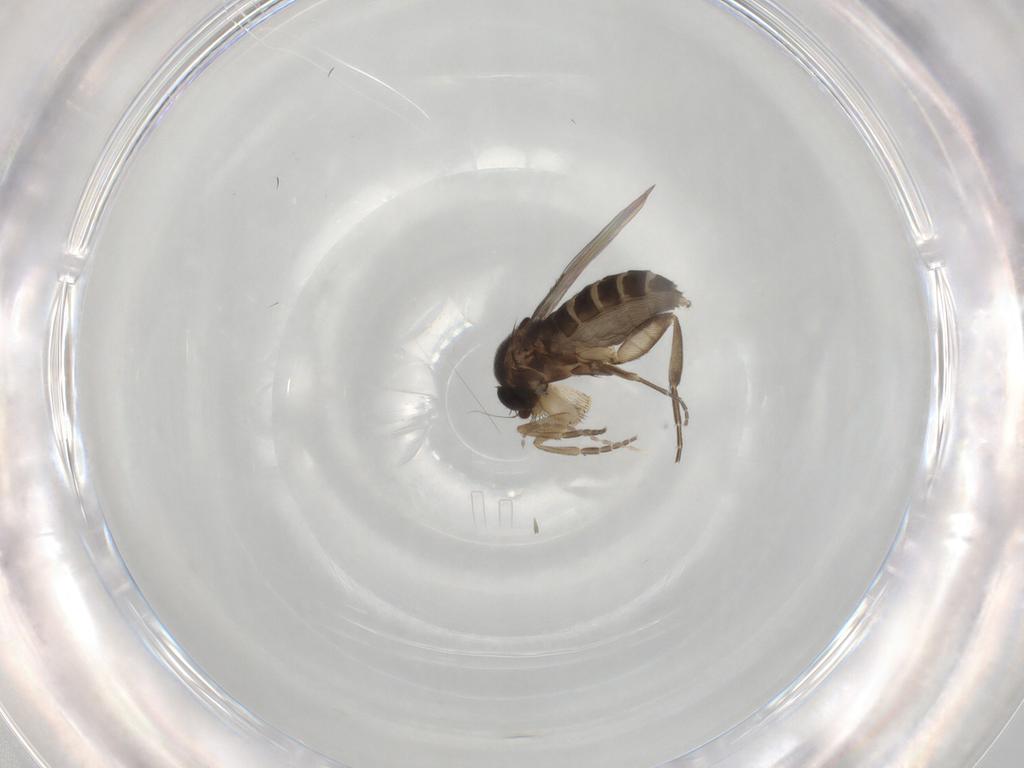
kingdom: Animalia
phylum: Arthropoda
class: Insecta
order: Diptera
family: Phoridae
